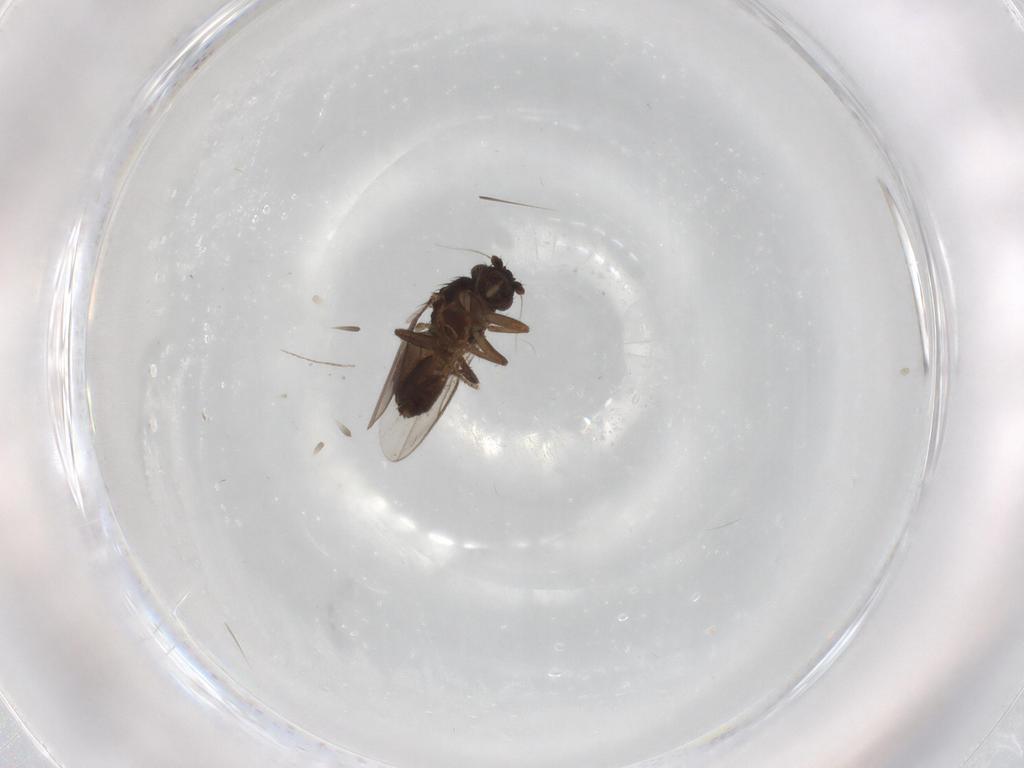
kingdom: Animalia
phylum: Arthropoda
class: Insecta
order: Diptera
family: Sphaeroceridae
